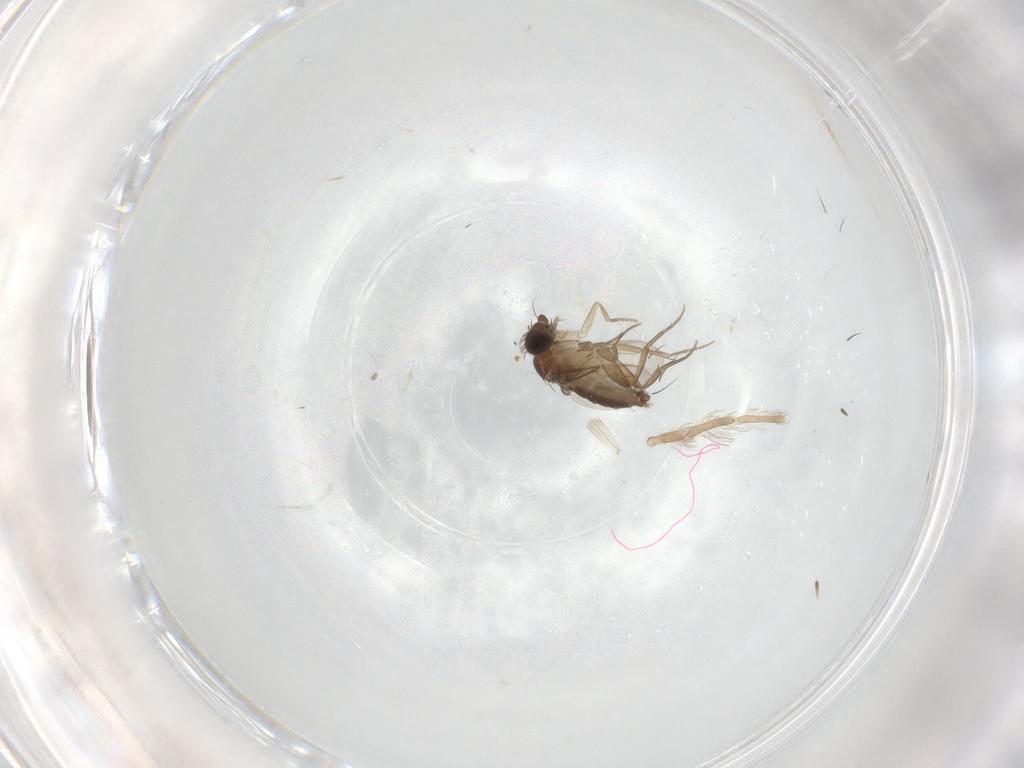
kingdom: Animalia
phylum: Arthropoda
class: Insecta
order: Diptera
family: Phoridae
